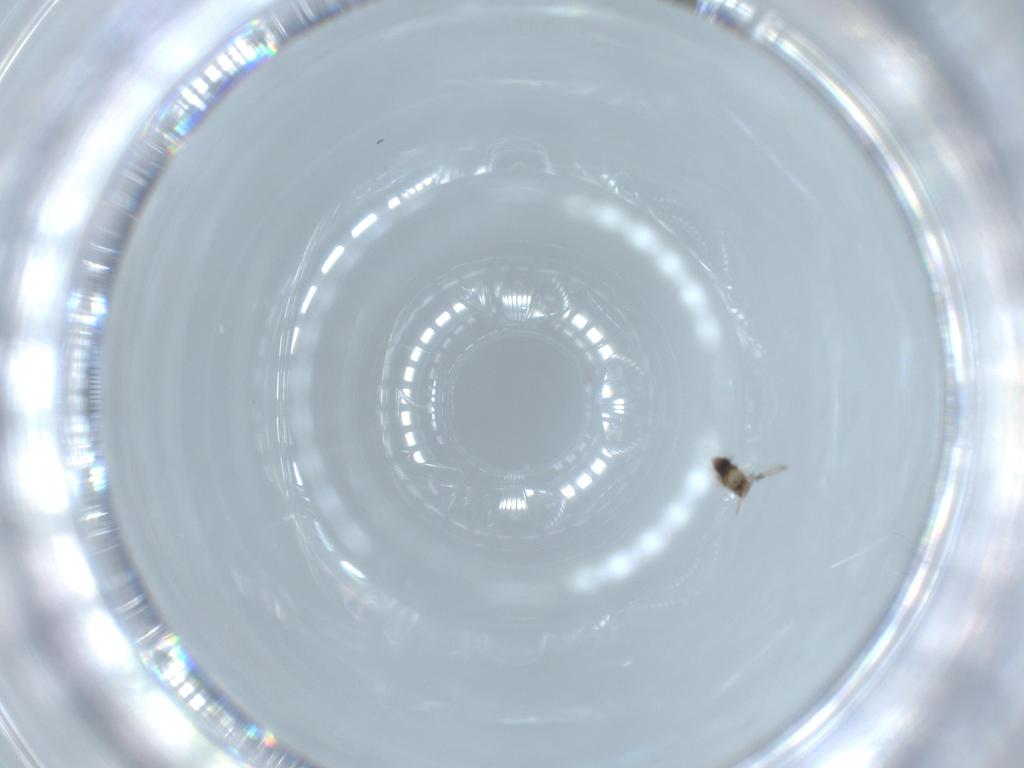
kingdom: Animalia
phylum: Arthropoda
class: Insecta
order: Hymenoptera
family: Aphelinidae
